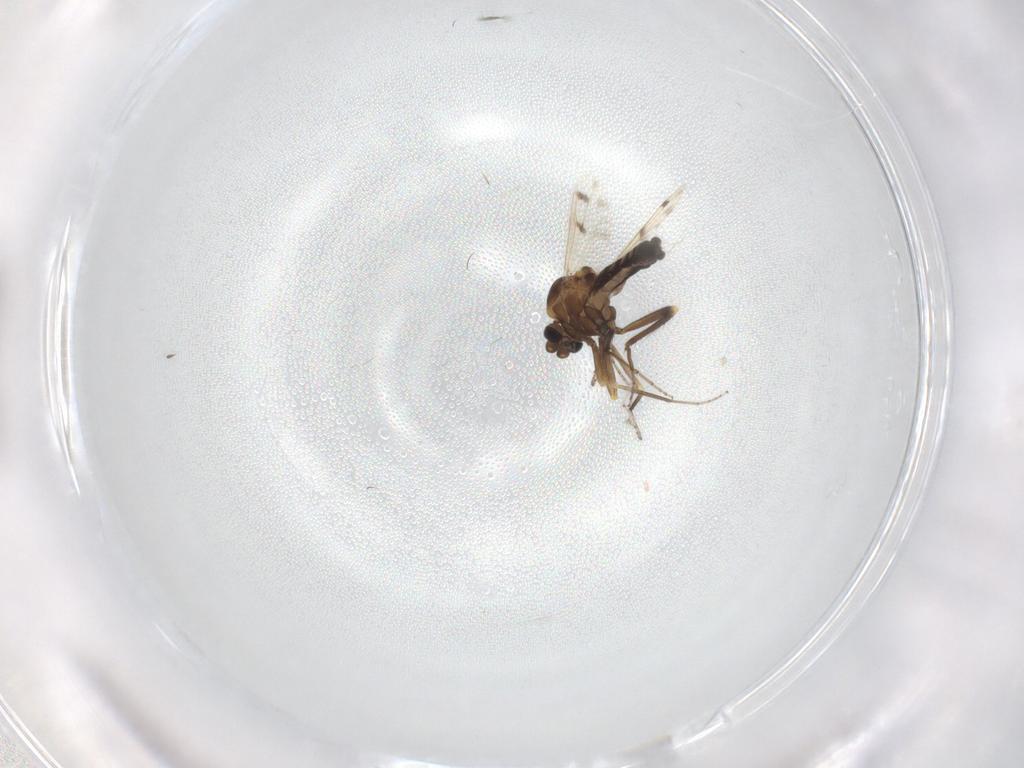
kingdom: Animalia
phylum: Arthropoda
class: Insecta
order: Diptera
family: Ceratopogonidae
